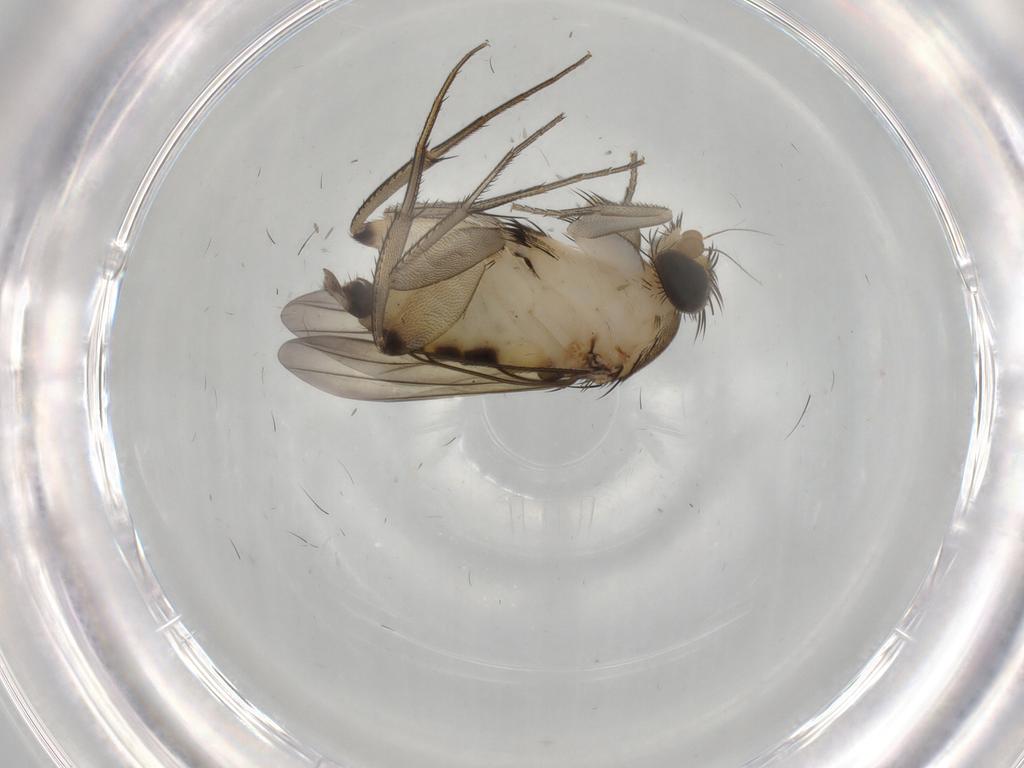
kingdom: Animalia
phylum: Arthropoda
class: Insecta
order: Diptera
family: Phoridae
